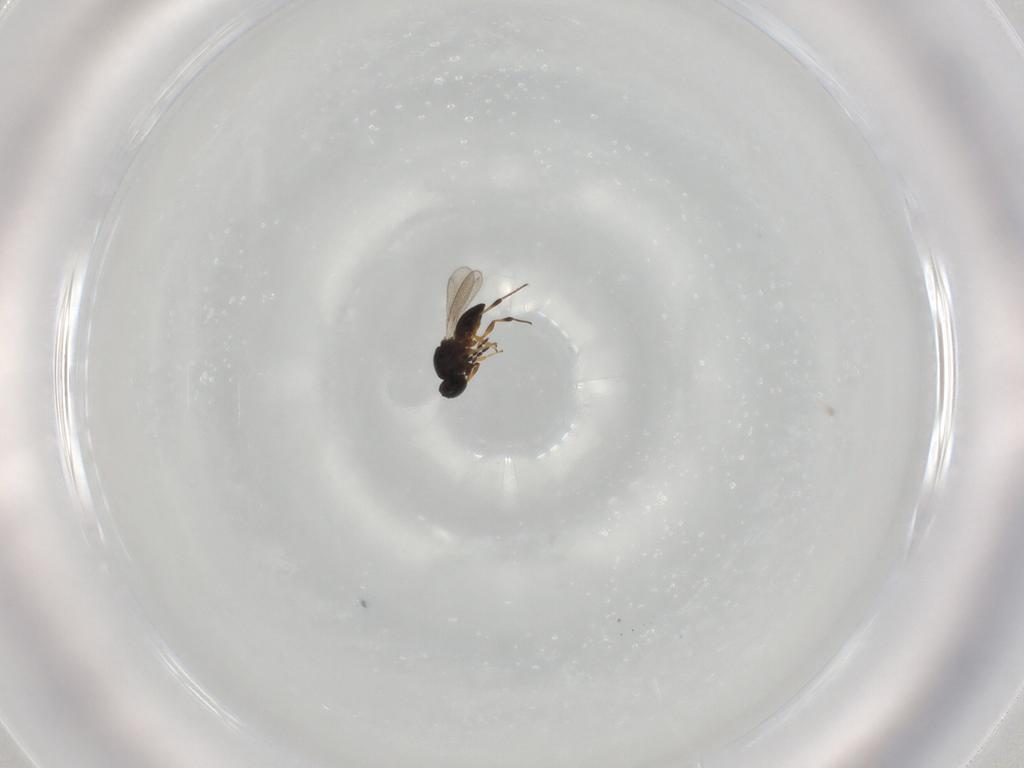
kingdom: Animalia
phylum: Arthropoda
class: Insecta
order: Hymenoptera
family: Platygastridae
